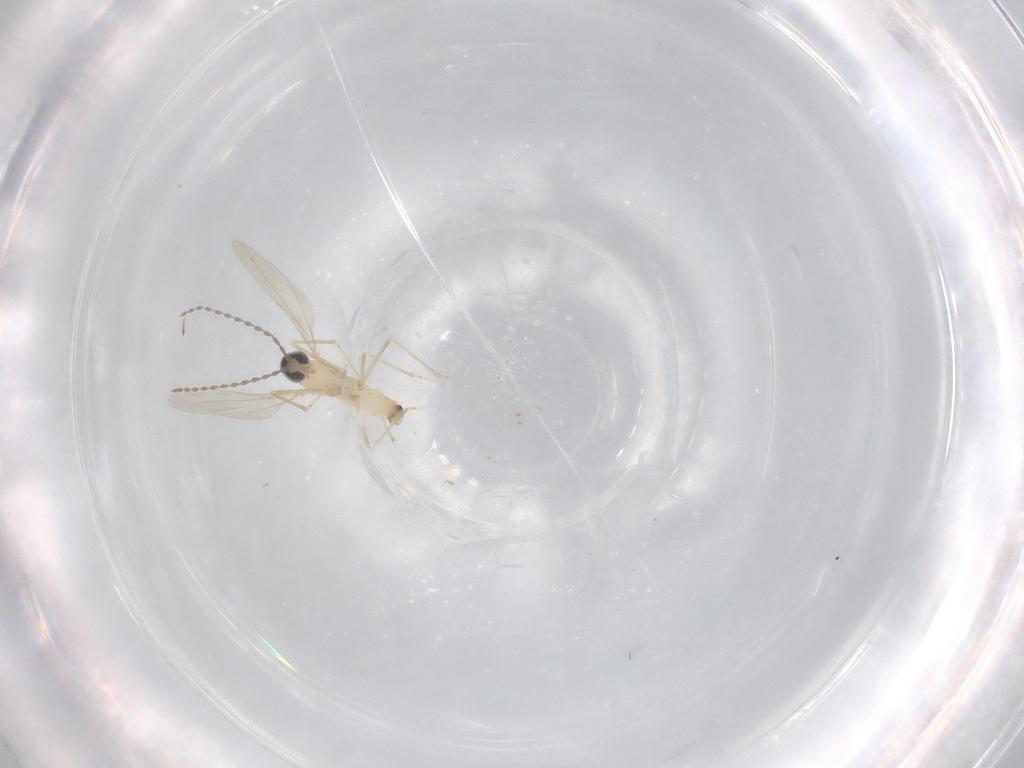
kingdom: Animalia
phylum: Arthropoda
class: Insecta
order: Diptera
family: Cecidomyiidae
